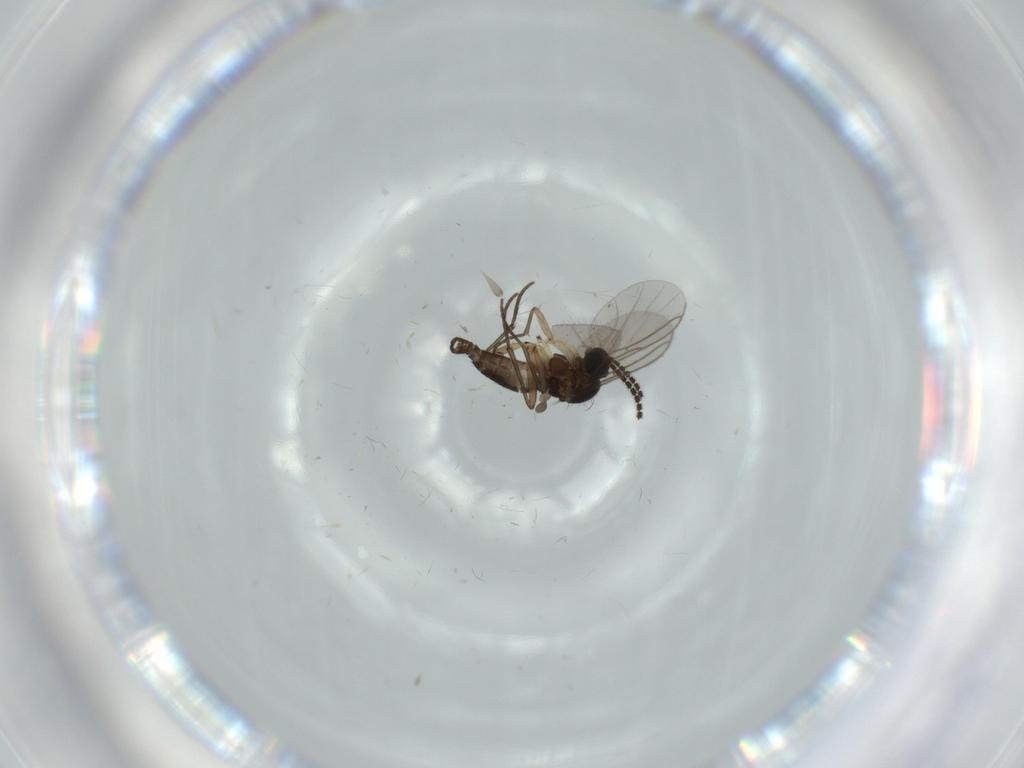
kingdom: Animalia
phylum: Arthropoda
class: Insecta
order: Diptera
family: Sciaridae
